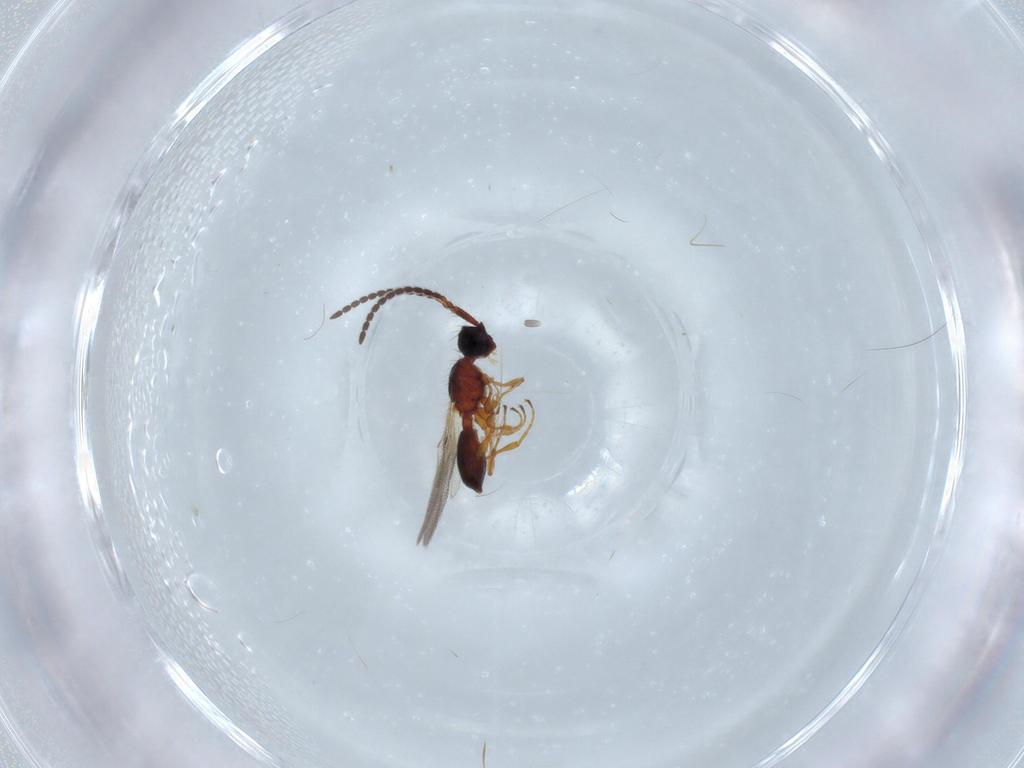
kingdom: Animalia
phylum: Arthropoda
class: Insecta
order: Hymenoptera
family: Diapriidae
